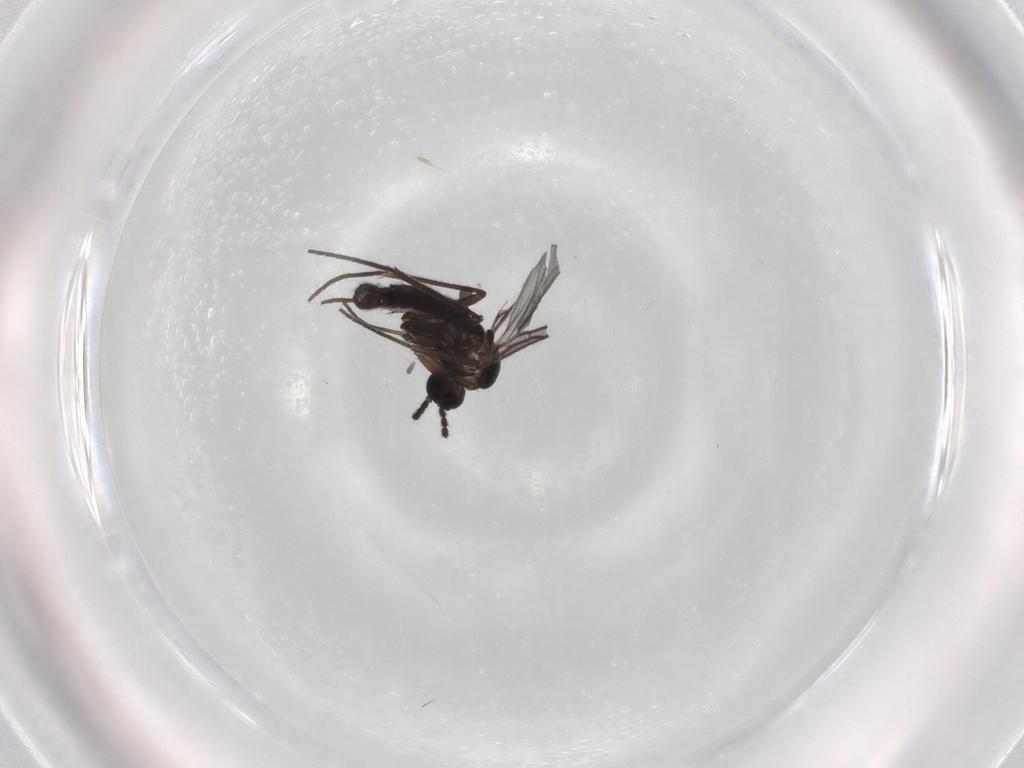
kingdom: Animalia
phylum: Arthropoda
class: Insecta
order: Diptera
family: Sciaridae
